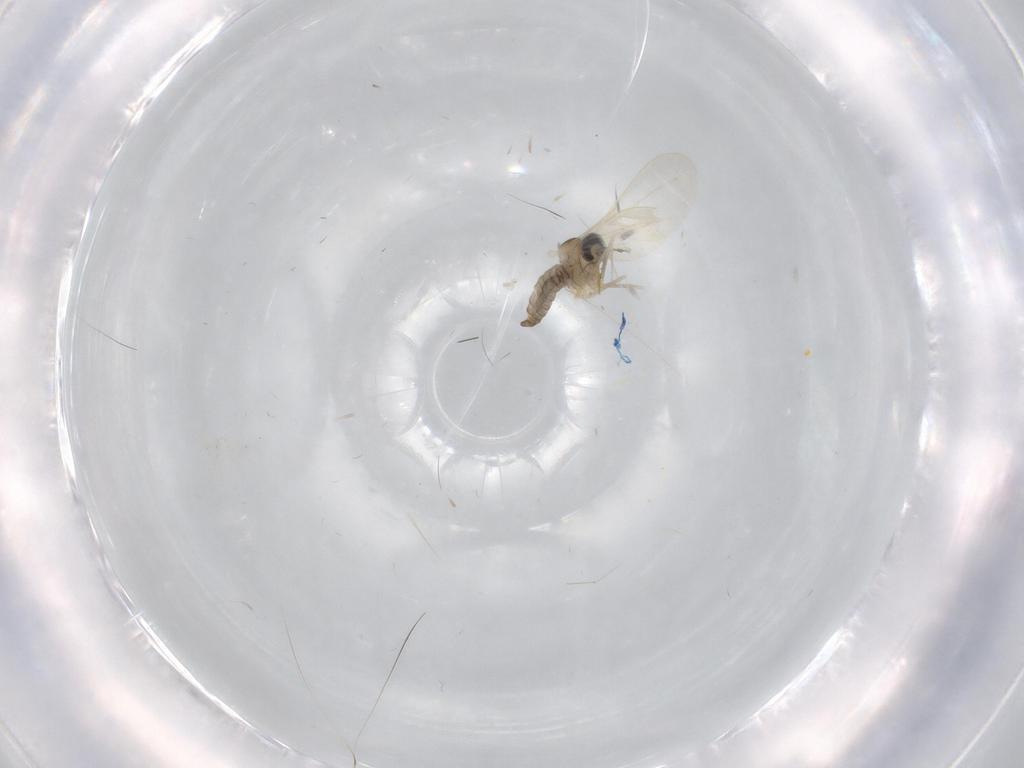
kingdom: Animalia
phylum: Arthropoda
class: Insecta
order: Diptera
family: Cecidomyiidae
